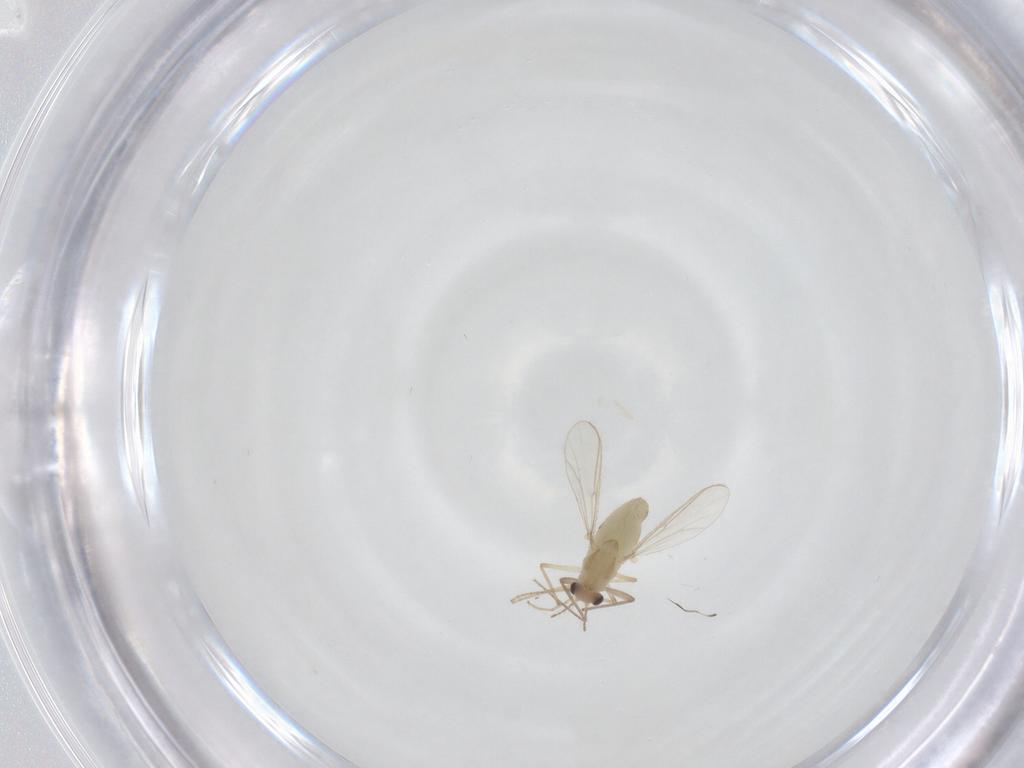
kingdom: Animalia
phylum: Arthropoda
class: Insecta
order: Diptera
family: Chironomidae
